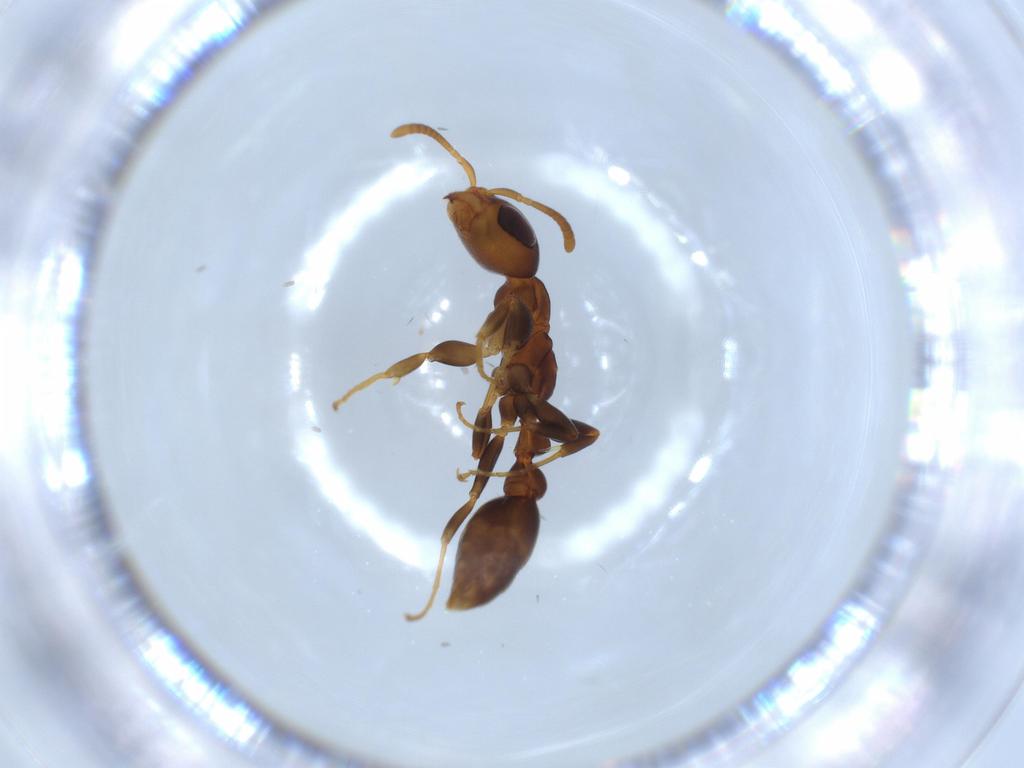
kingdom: Animalia
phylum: Arthropoda
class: Insecta
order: Hymenoptera
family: Formicidae
